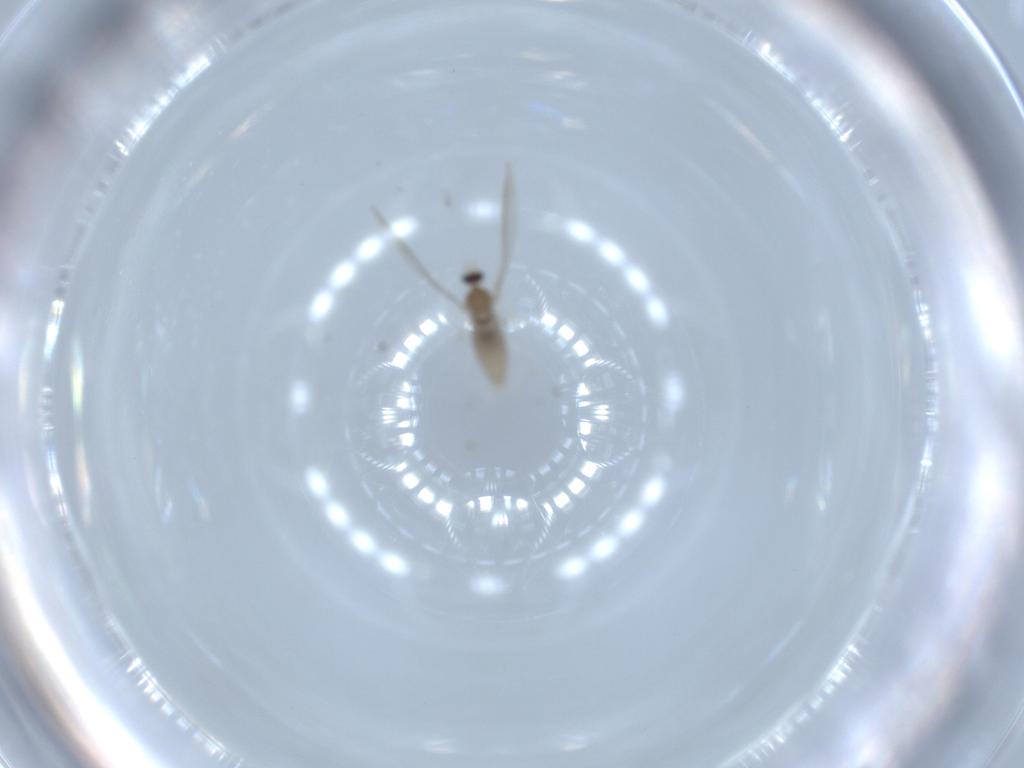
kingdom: Animalia
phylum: Arthropoda
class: Insecta
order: Diptera
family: Cecidomyiidae
